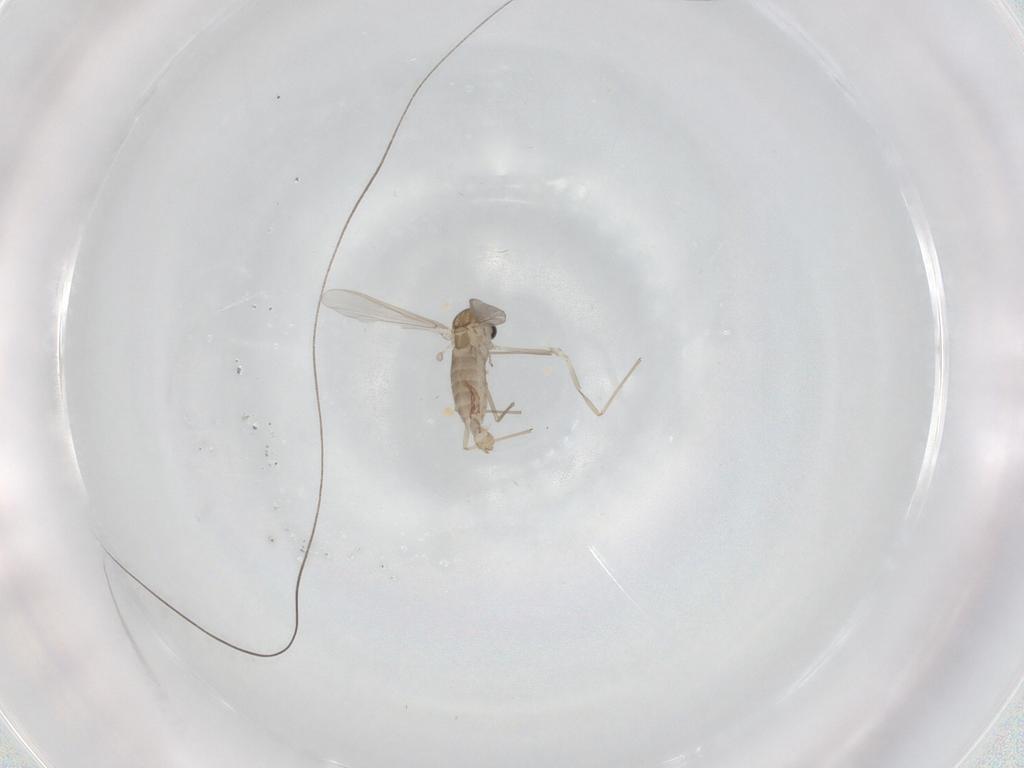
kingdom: Animalia
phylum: Arthropoda
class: Insecta
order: Diptera
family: Chironomidae
